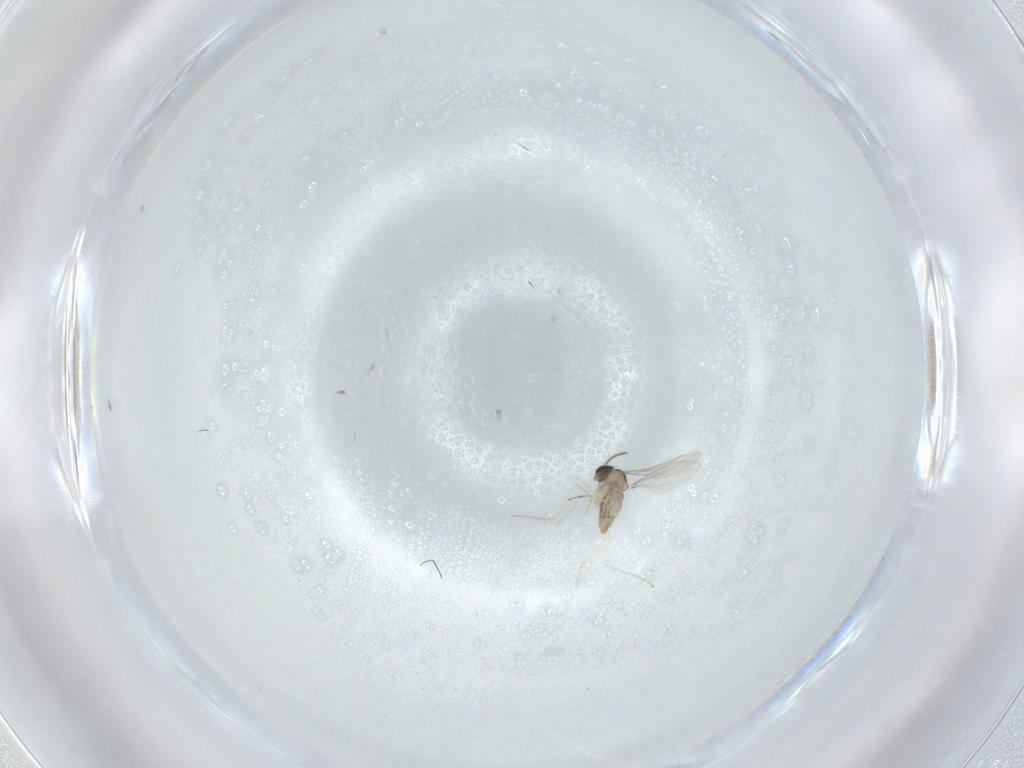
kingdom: Animalia
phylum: Arthropoda
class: Insecta
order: Diptera
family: Cecidomyiidae
